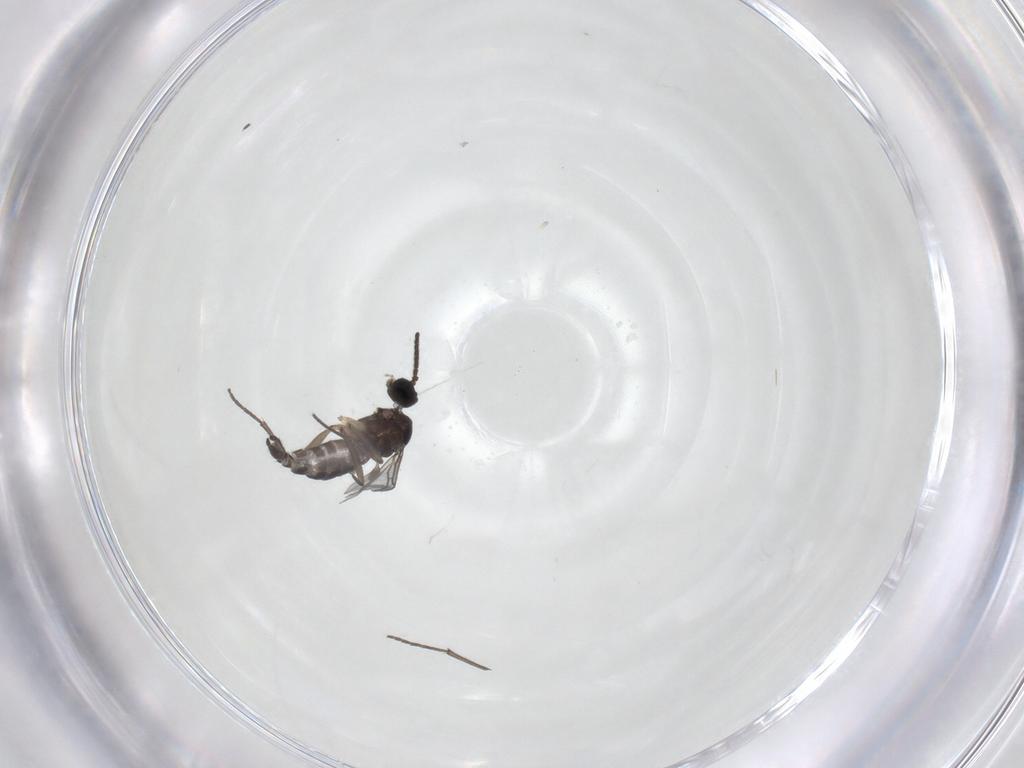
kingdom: Animalia
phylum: Arthropoda
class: Insecta
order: Diptera
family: Sciaridae
